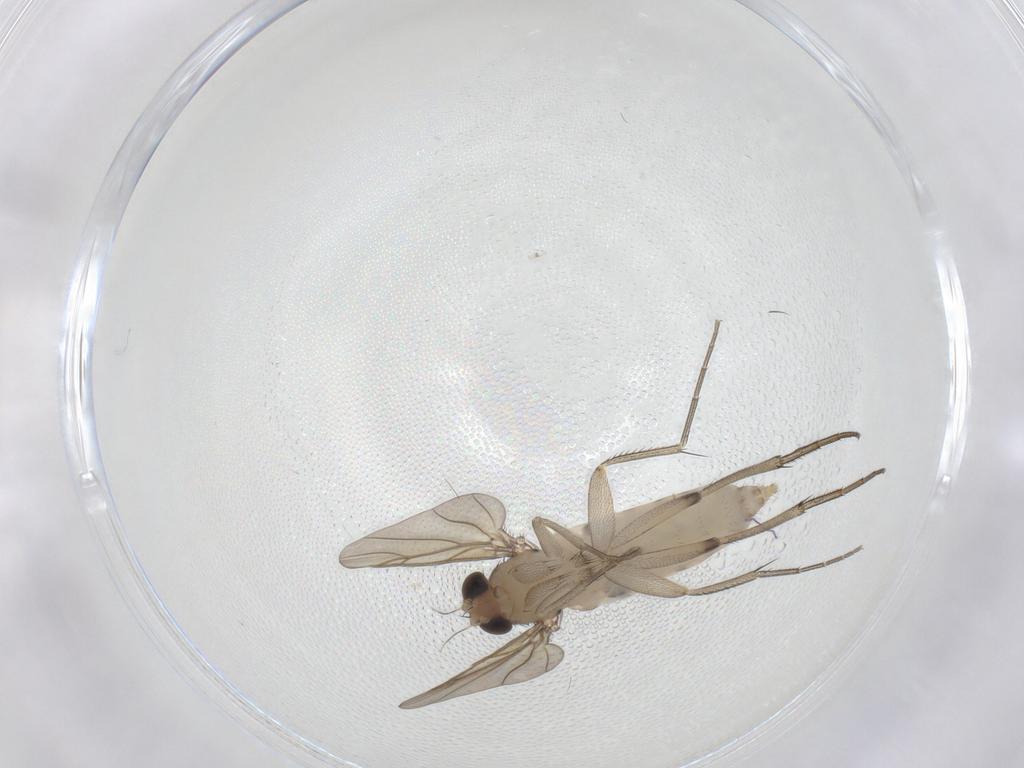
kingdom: Animalia
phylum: Arthropoda
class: Insecta
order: Diptera
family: Phoridae
